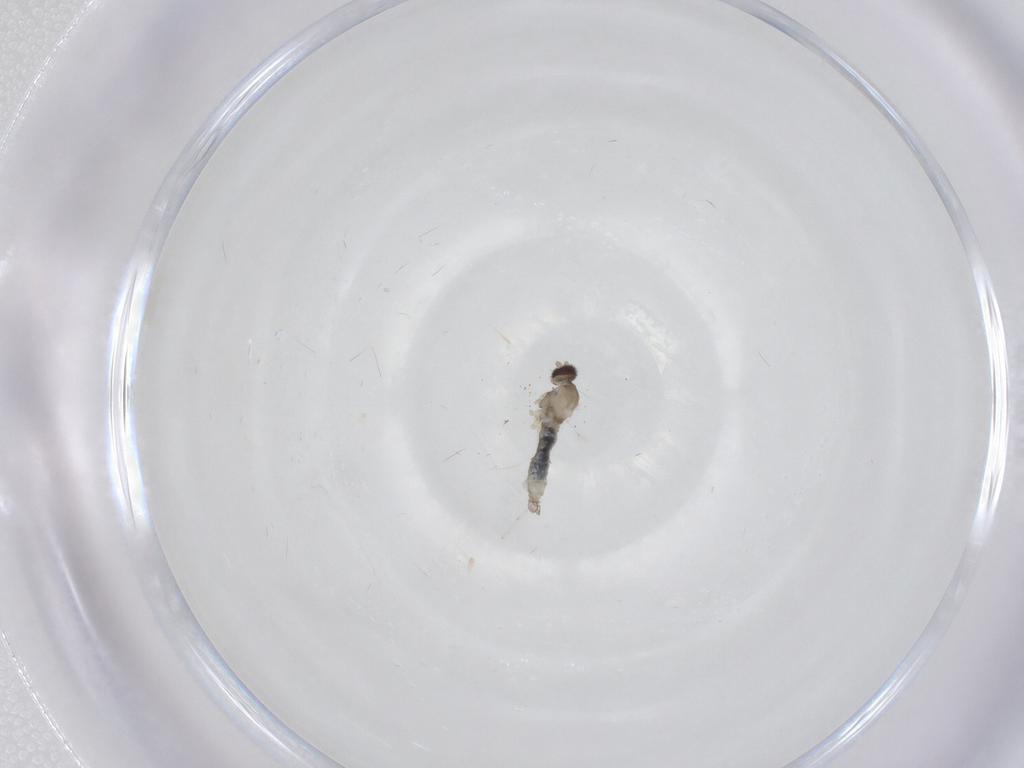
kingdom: Animalia
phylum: Arthropoda
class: Insecta
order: Diptera
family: Cecidomyiidae
